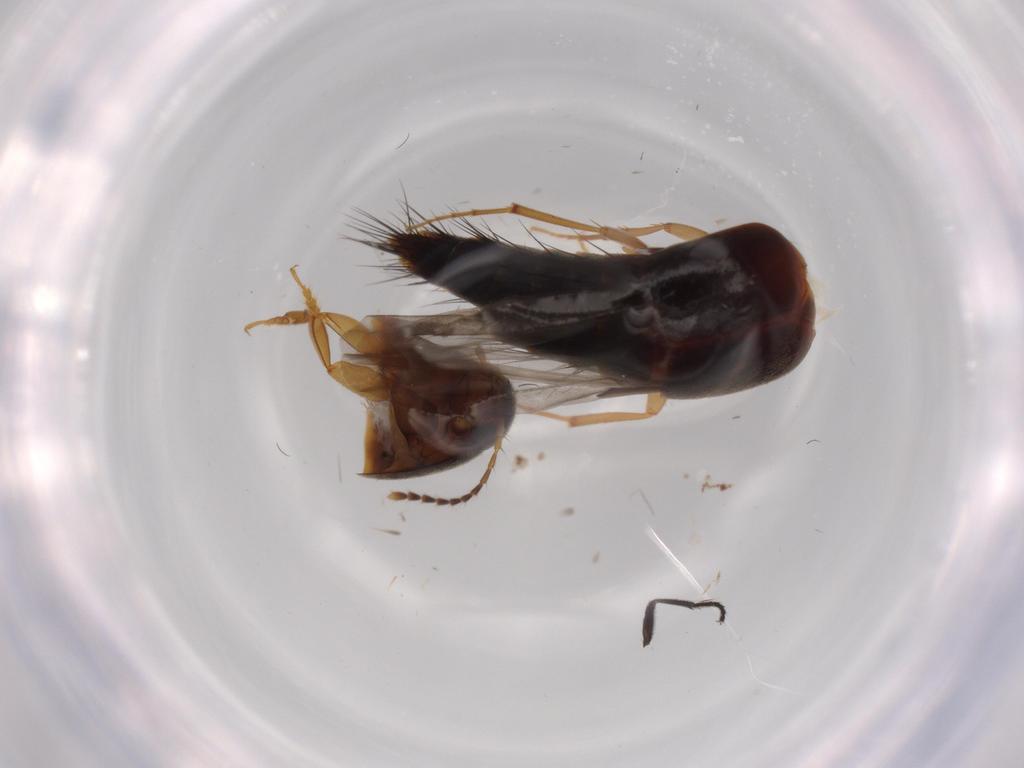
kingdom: Animalia
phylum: Arthropoda
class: Insecta
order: Coleoptera
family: Staphylinidae
